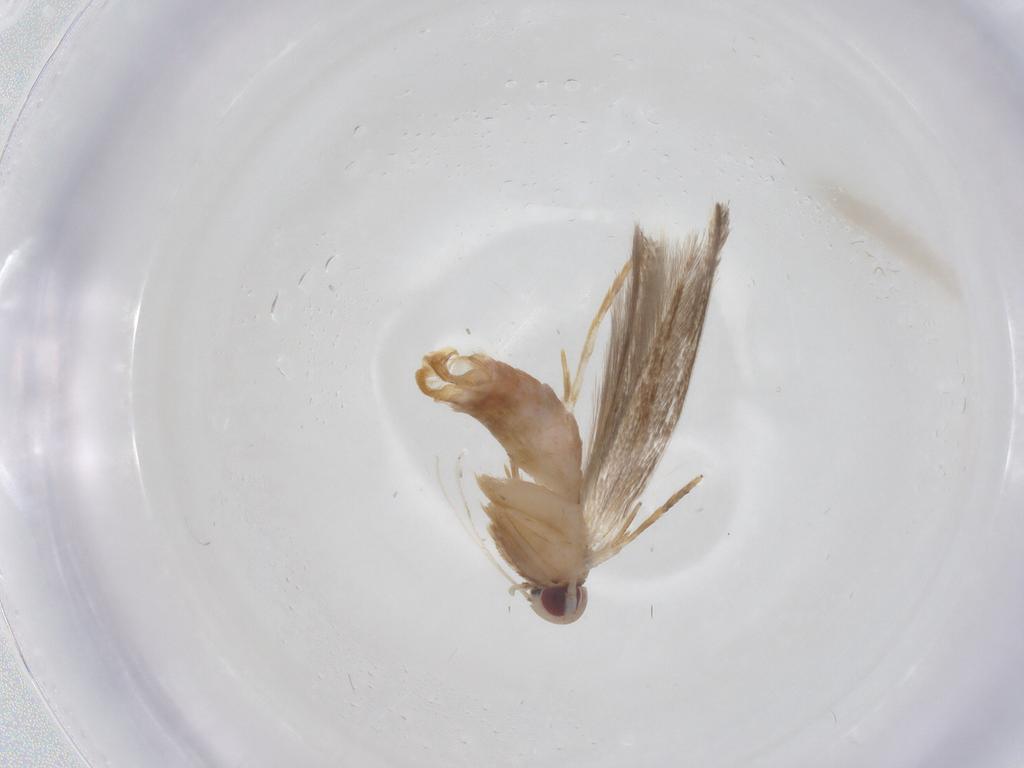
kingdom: Animalia
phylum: Arthropoda
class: Insecta
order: Lepidoptera
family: Cosmopterigidae
